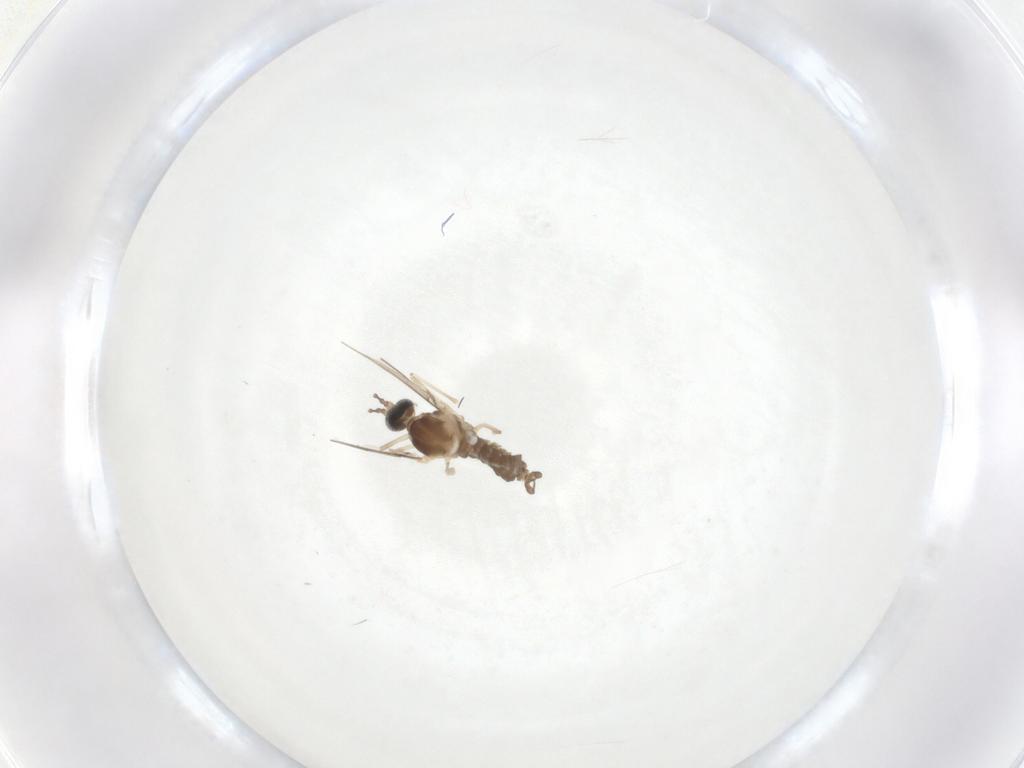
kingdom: Animalia
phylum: Arthropoda
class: Insecta
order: Diptera
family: Cecidomyiidae
